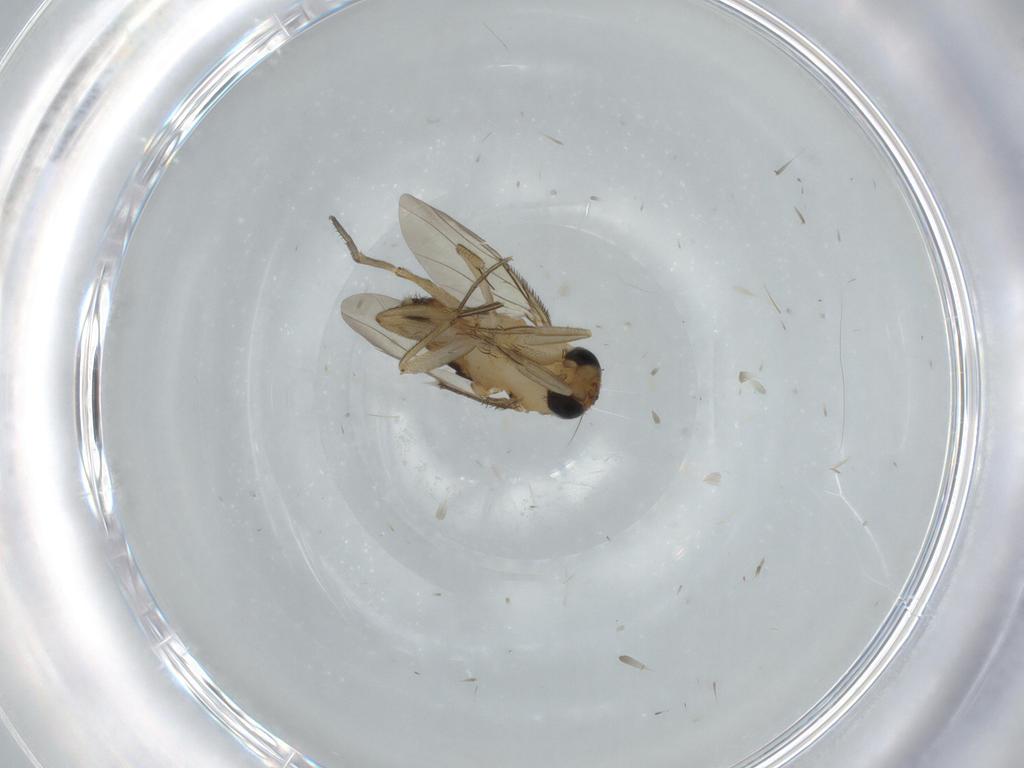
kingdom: Animalia
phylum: Arthropoda
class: Insecta
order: Diptera
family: Phoridae
